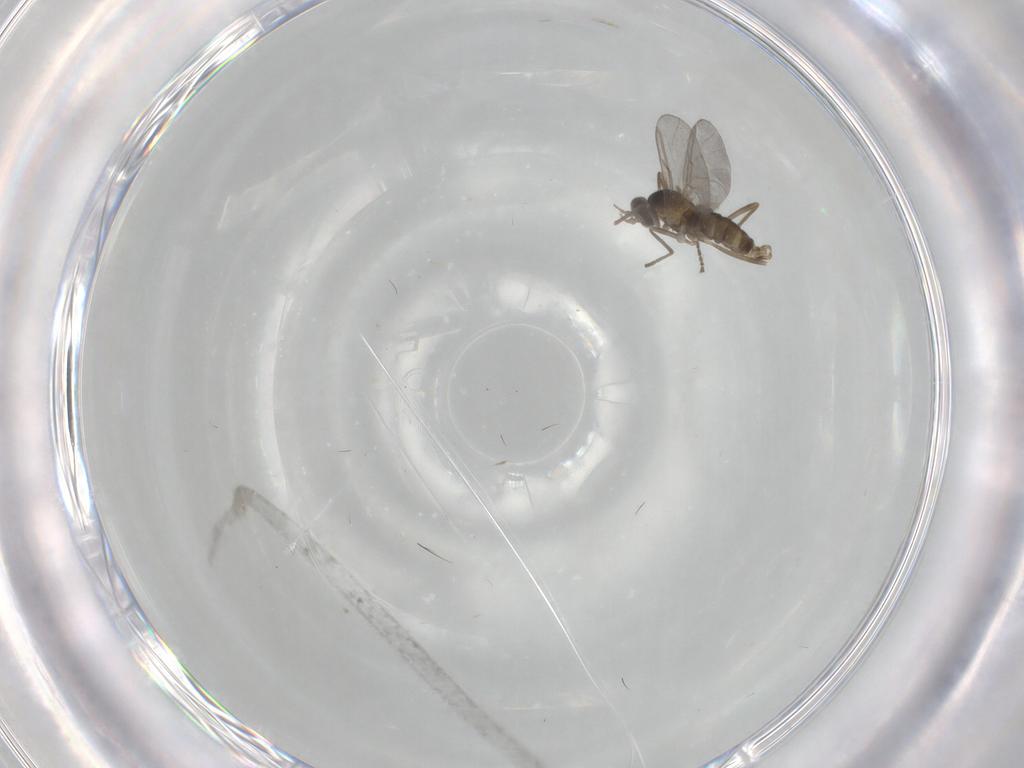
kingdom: Animalia
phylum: Arthropoda
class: Insecta
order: Diptera
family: Cecidomyiidae
